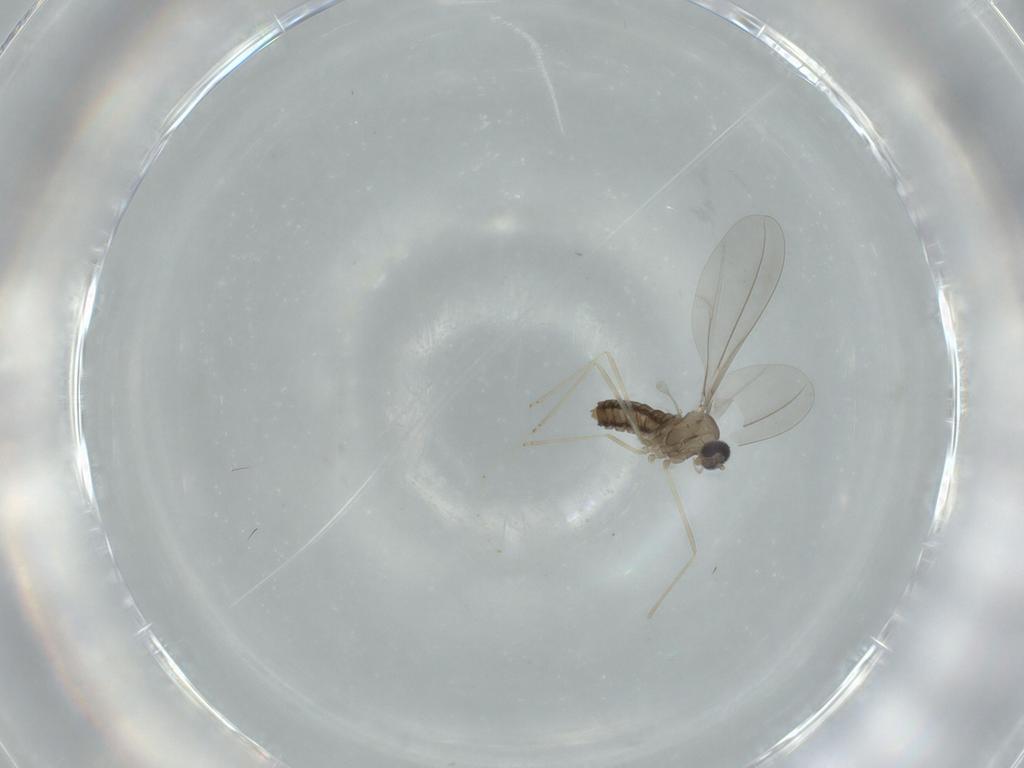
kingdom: Animalia
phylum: Arthropoda
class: Insecta
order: Diptera
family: Cecidomyiidae
